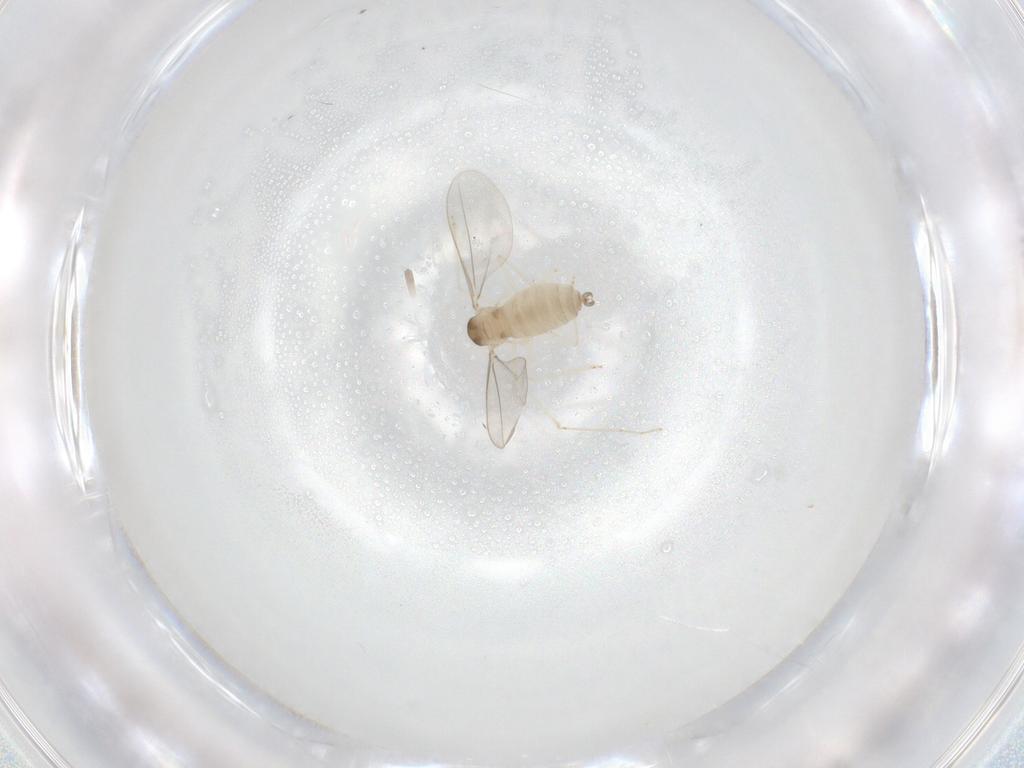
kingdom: Animalia
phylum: Arthropoda
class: Insecta
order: Diptera
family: Cecidomyiidae
